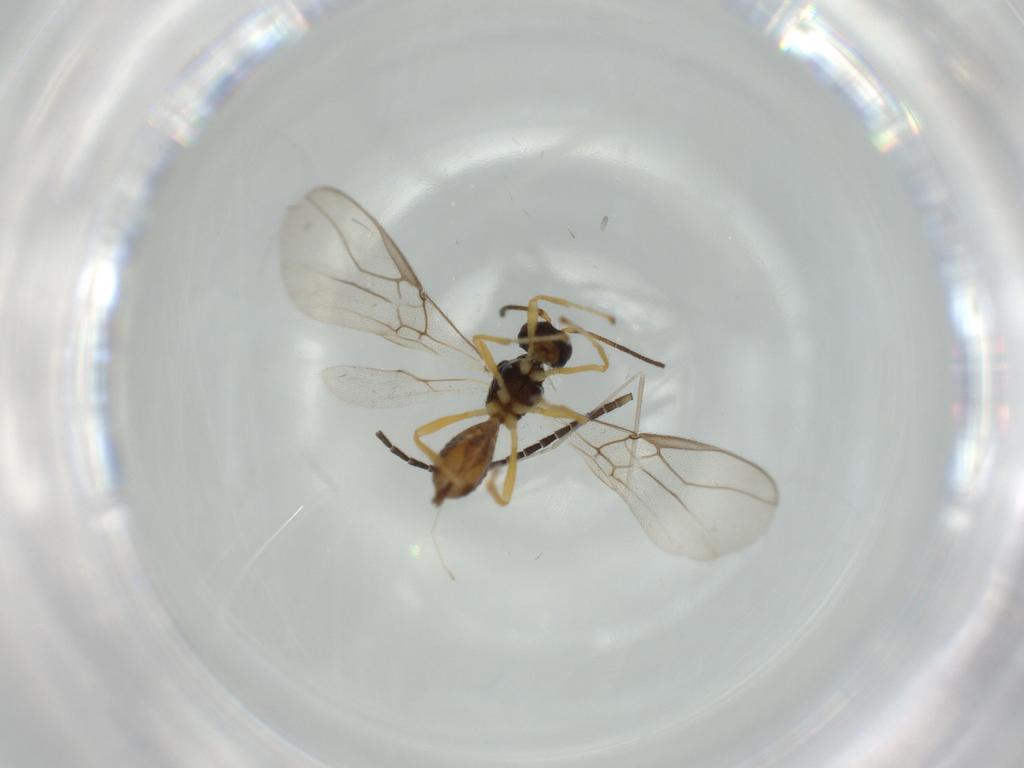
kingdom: Animalia
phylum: Arthropoda
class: Insecta
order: Hymenoptera
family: Braconidae
